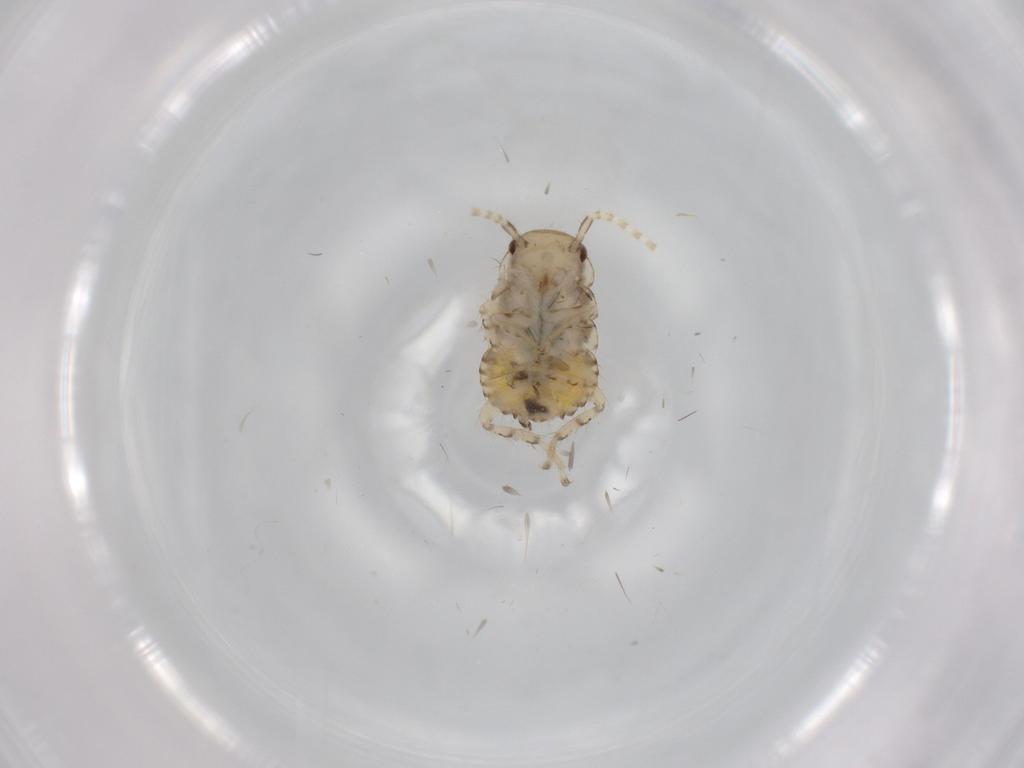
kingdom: Animalia
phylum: Arthropoda
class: Insecta
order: Blattodea
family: Ectobiidae
